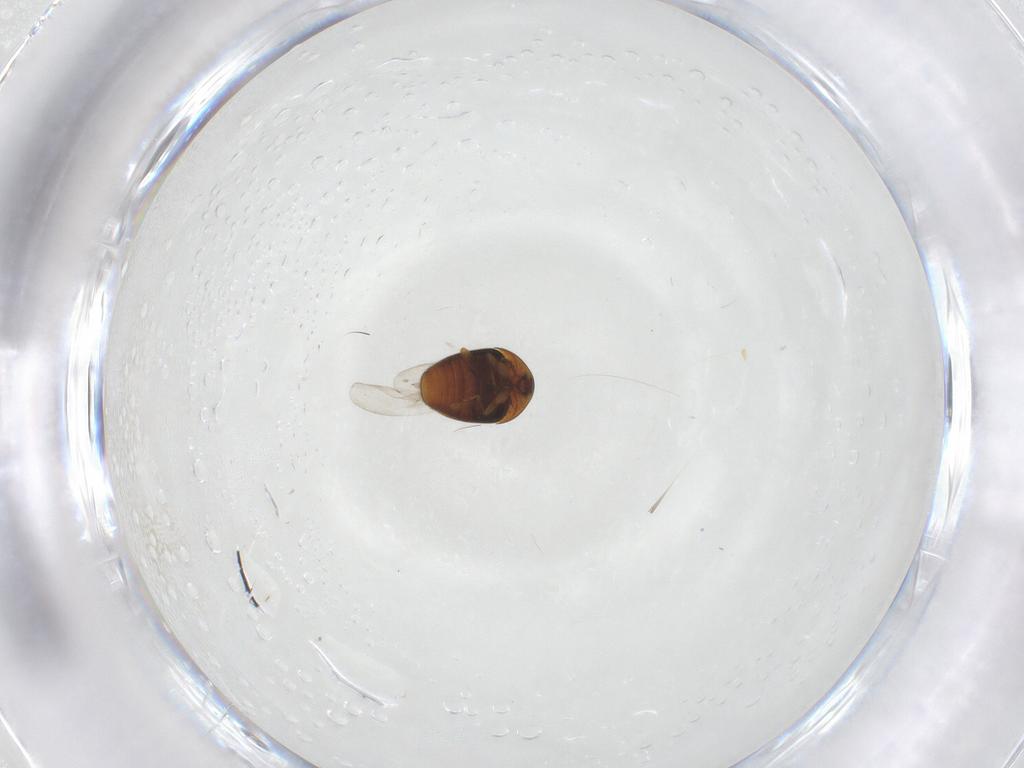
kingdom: Animalia
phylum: Arthropoda
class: Insecta
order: Coleoptera
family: Corylophidae
